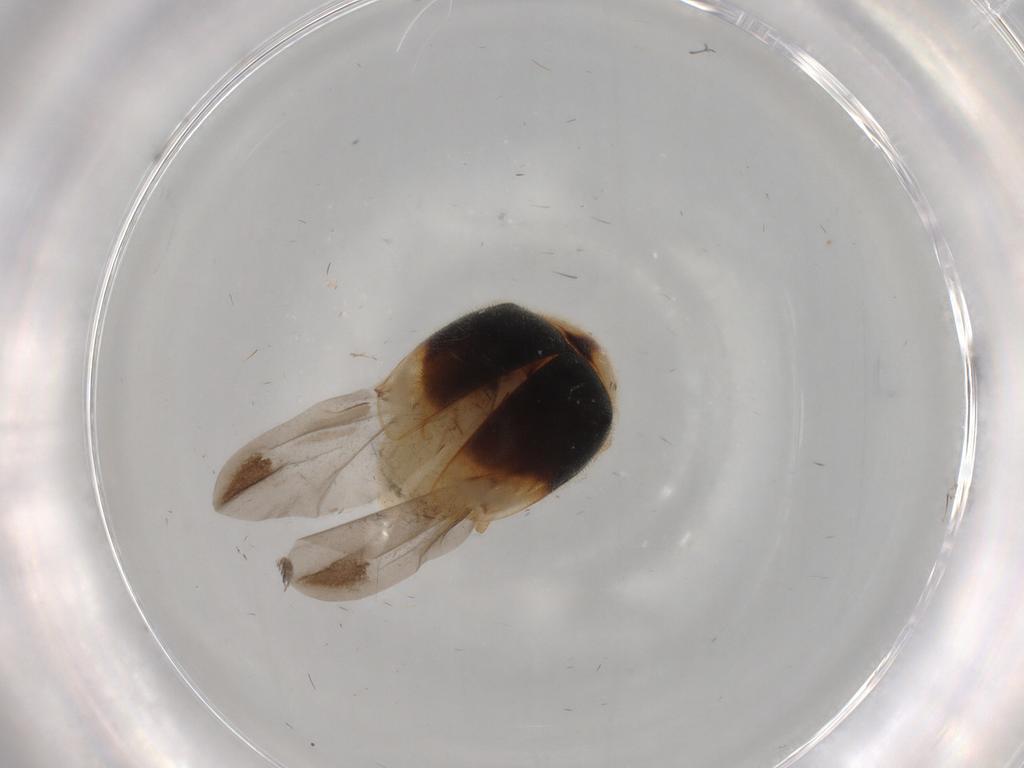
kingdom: Animalia
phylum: Arthropoda
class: Insecta
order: Coleoptera
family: Coccinellidae
